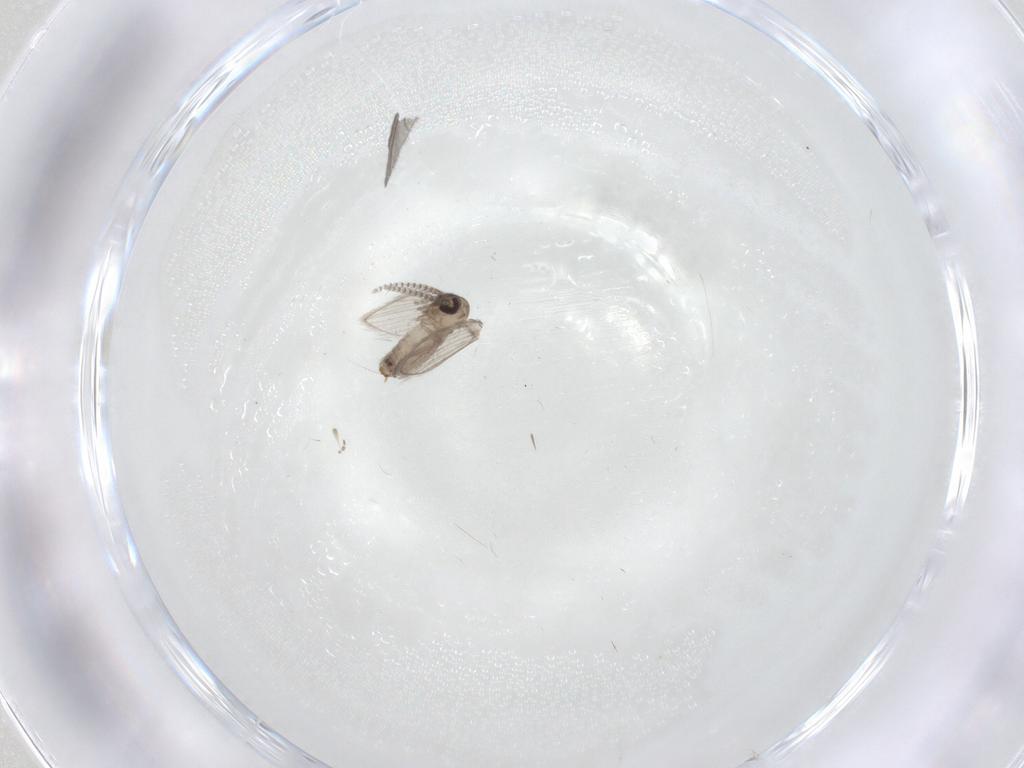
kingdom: Animalia
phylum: Arthropoda
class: Insecta
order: Diptera
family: Psychodidae
